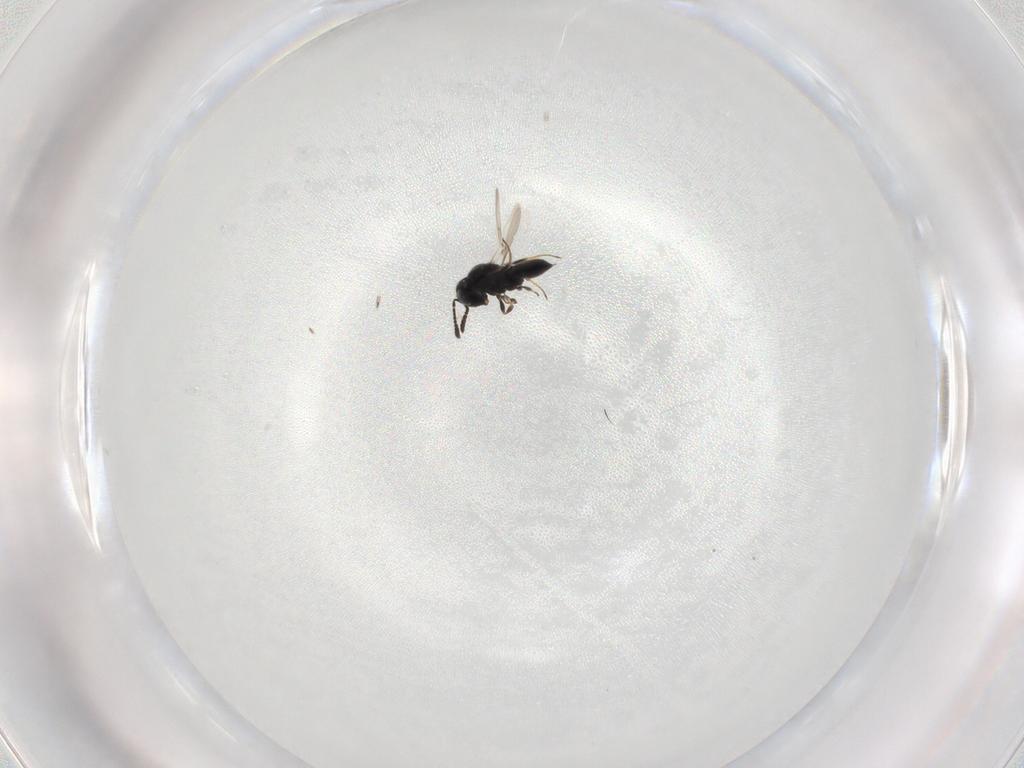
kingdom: Animalia
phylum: Arthropoda
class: Insecta
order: Hymenoptera
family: Scelionidae
